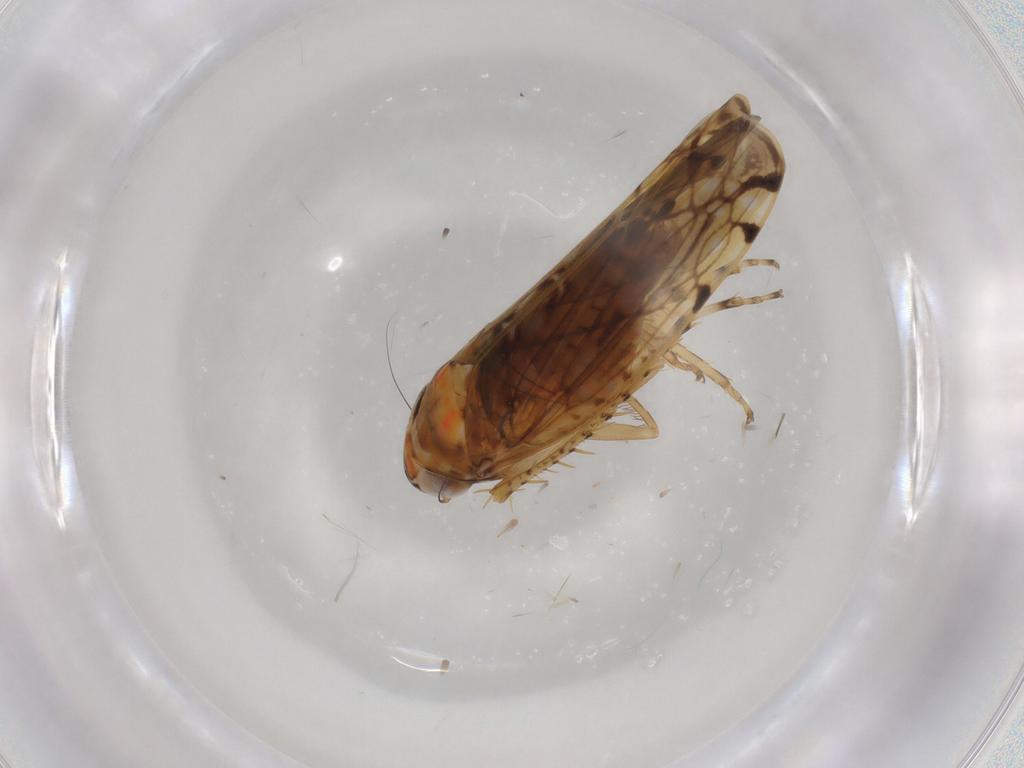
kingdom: Animalia
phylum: Arthropoda
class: Insecta
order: Hemiptera
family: Cicadellidae
